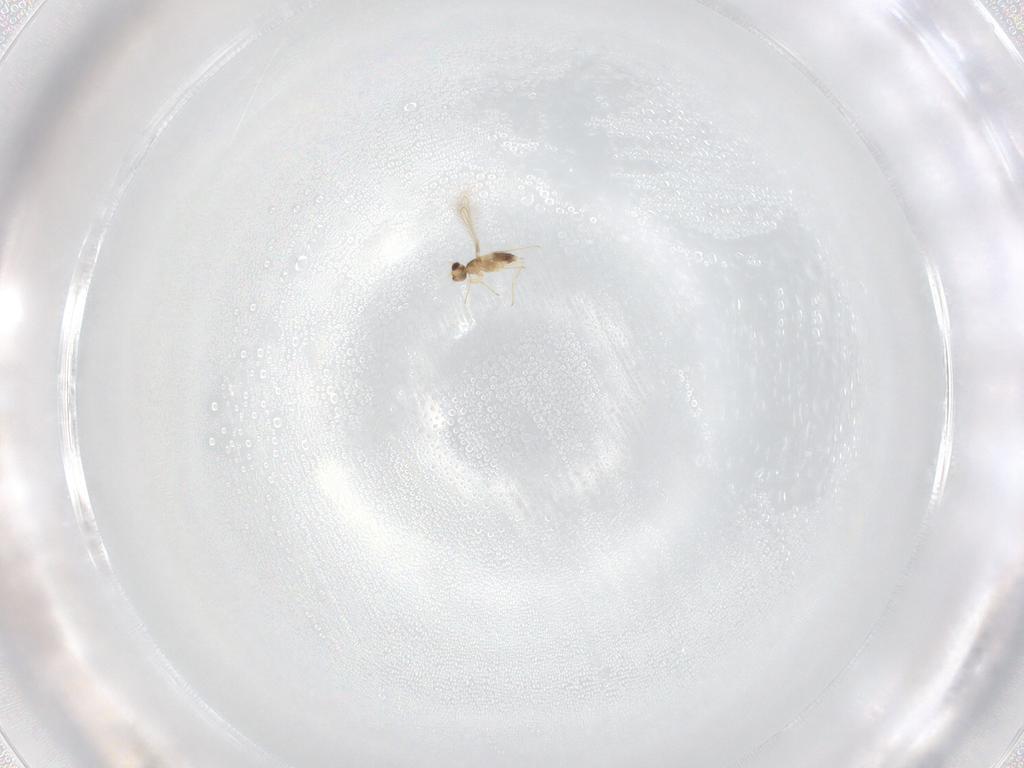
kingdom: Animalia
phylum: Arthropoda
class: Insecta
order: Hymenoptera
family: Mymaridae
